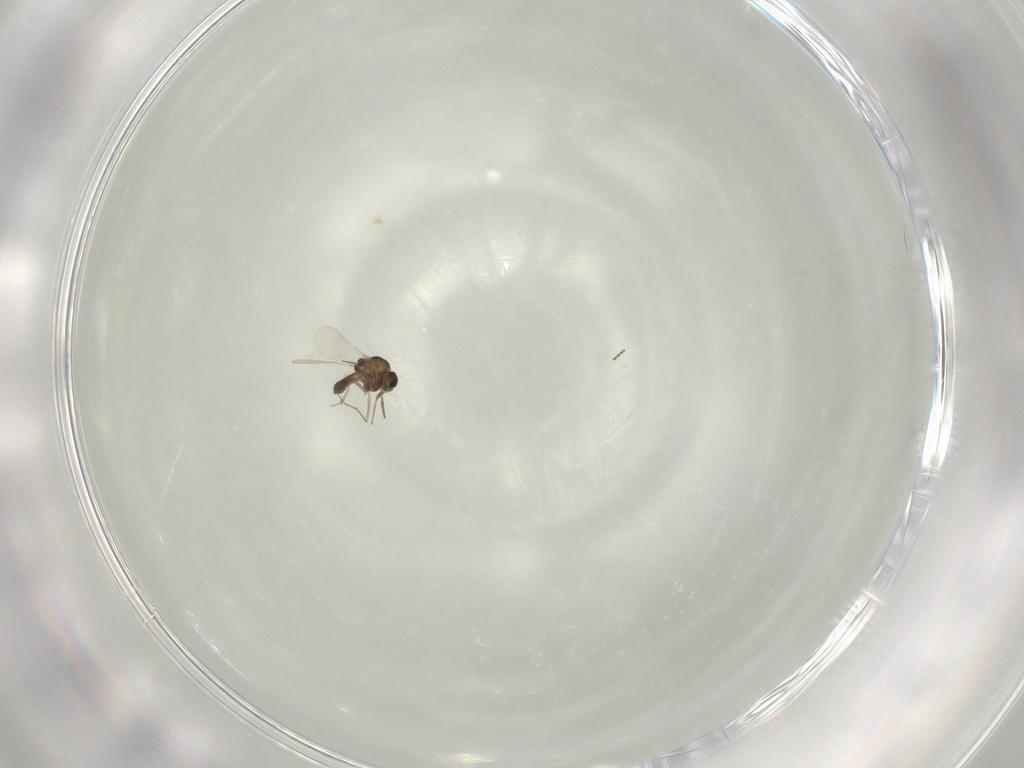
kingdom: Animalia
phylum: Arthropoda
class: Insecta
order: Diptera
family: Chironomidae
